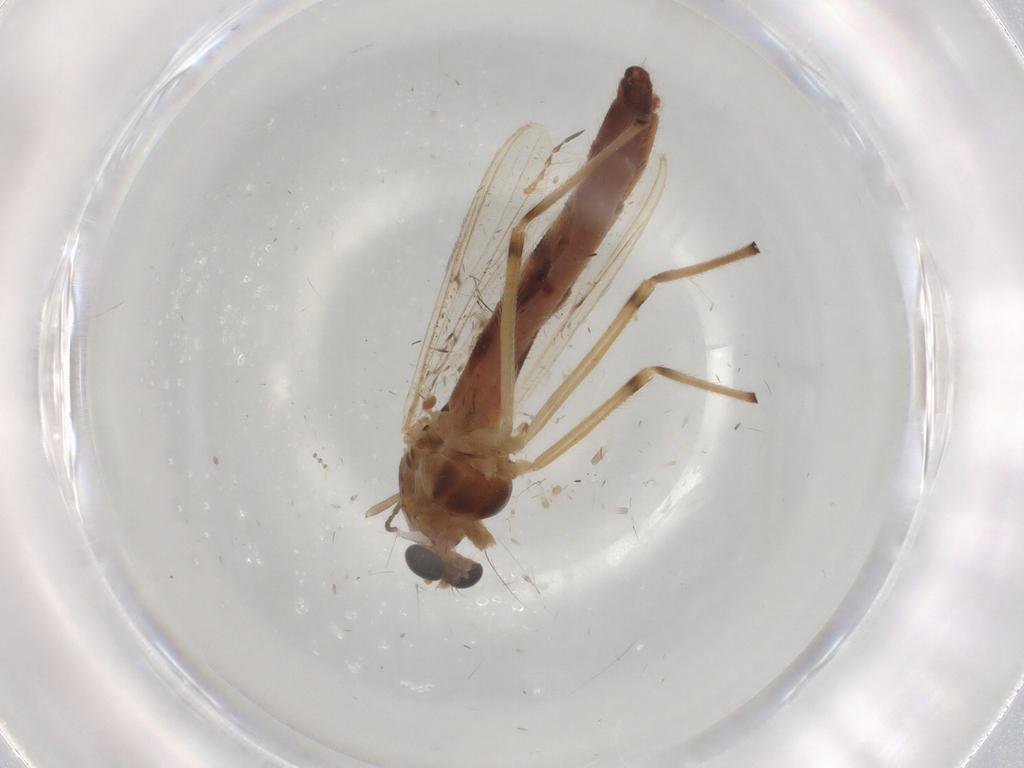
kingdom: Animalia
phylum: Arthropoda
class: Insecta
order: Diptera
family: Chironomidae
